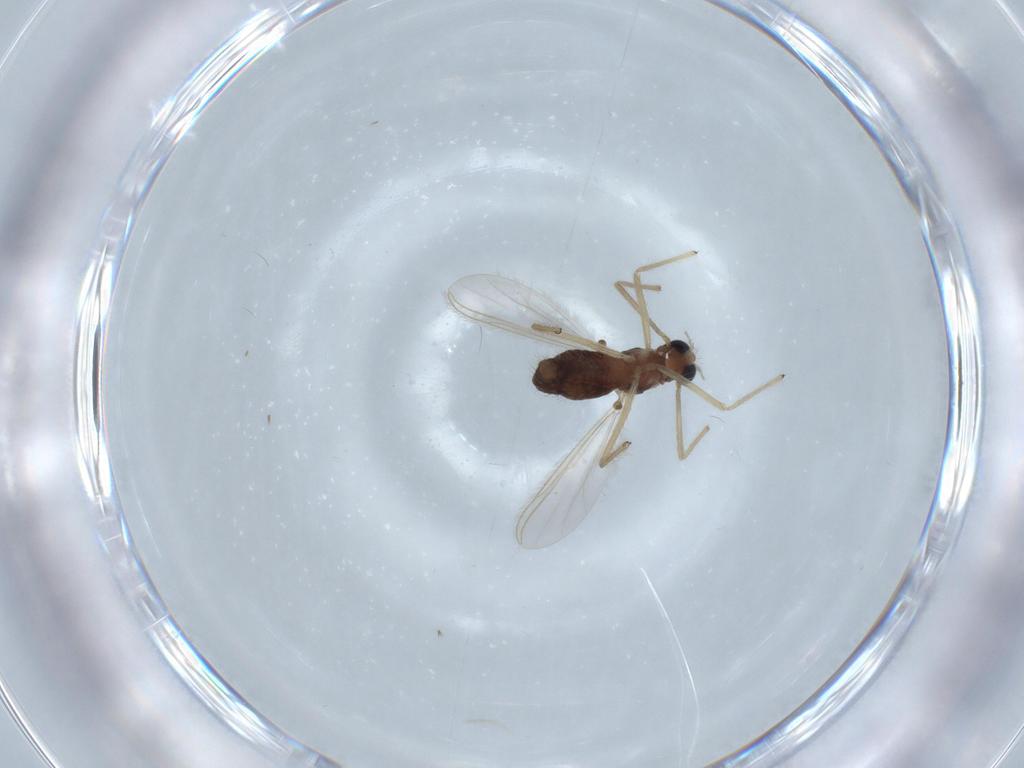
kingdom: Animalia
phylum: Arthropoda
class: Insecta
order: Diptera
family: Chironomidae
